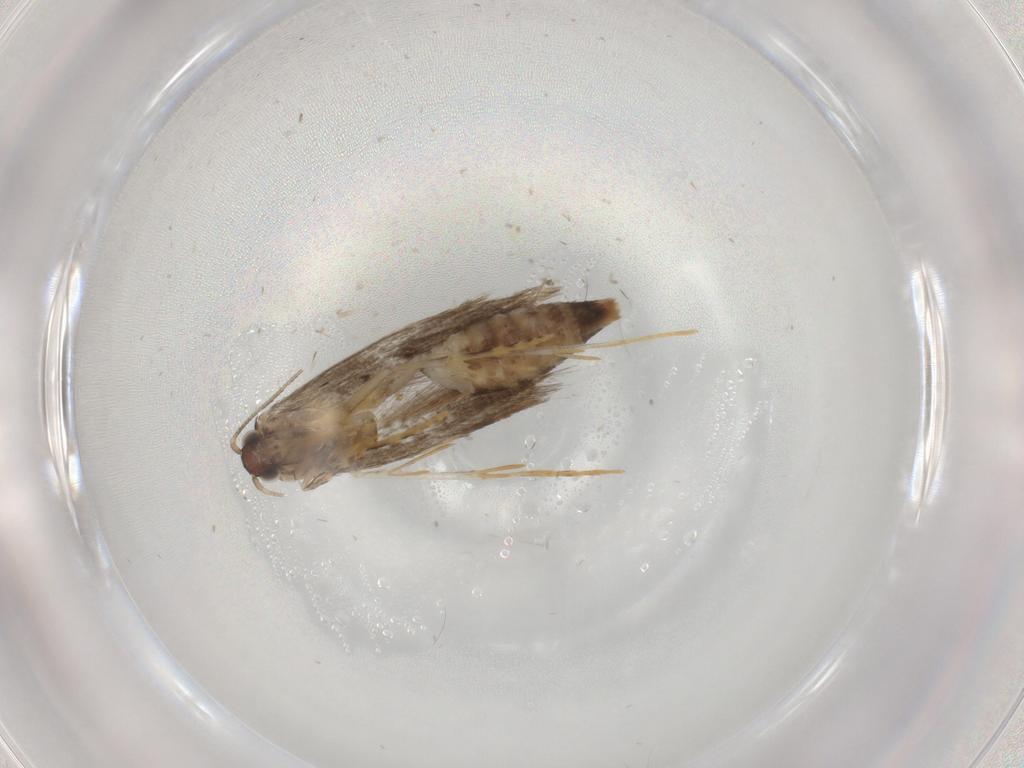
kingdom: Animalia
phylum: Arthropoda
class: Insecta
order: Lepidoptera
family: Tineidae
